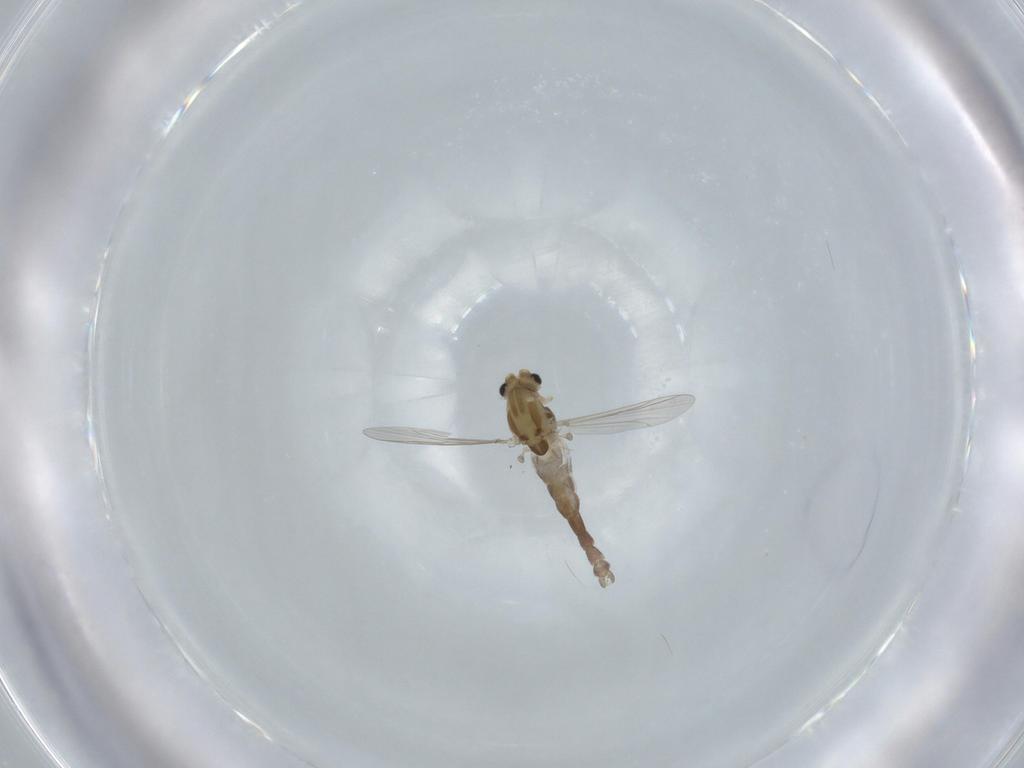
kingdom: Animalia
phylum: Arthropoda
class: Insecta
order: Diptera
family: Chironomidae
